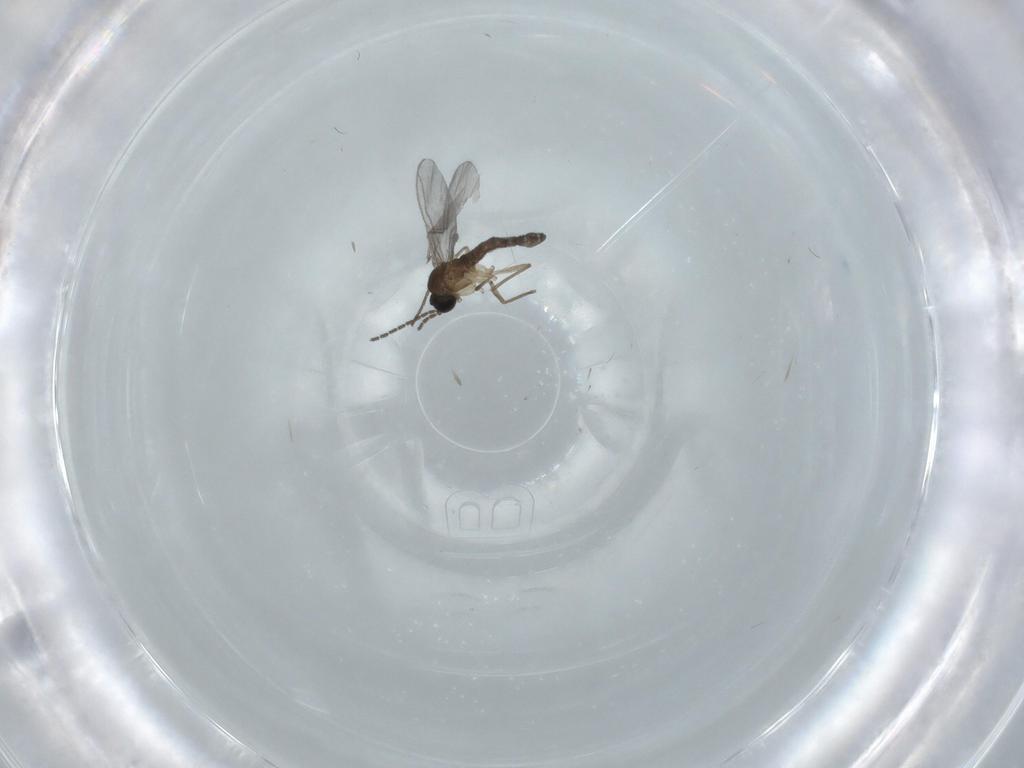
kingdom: Animalia
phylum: Arthropoda
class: Insecta
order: Diptera
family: Sciaridae
